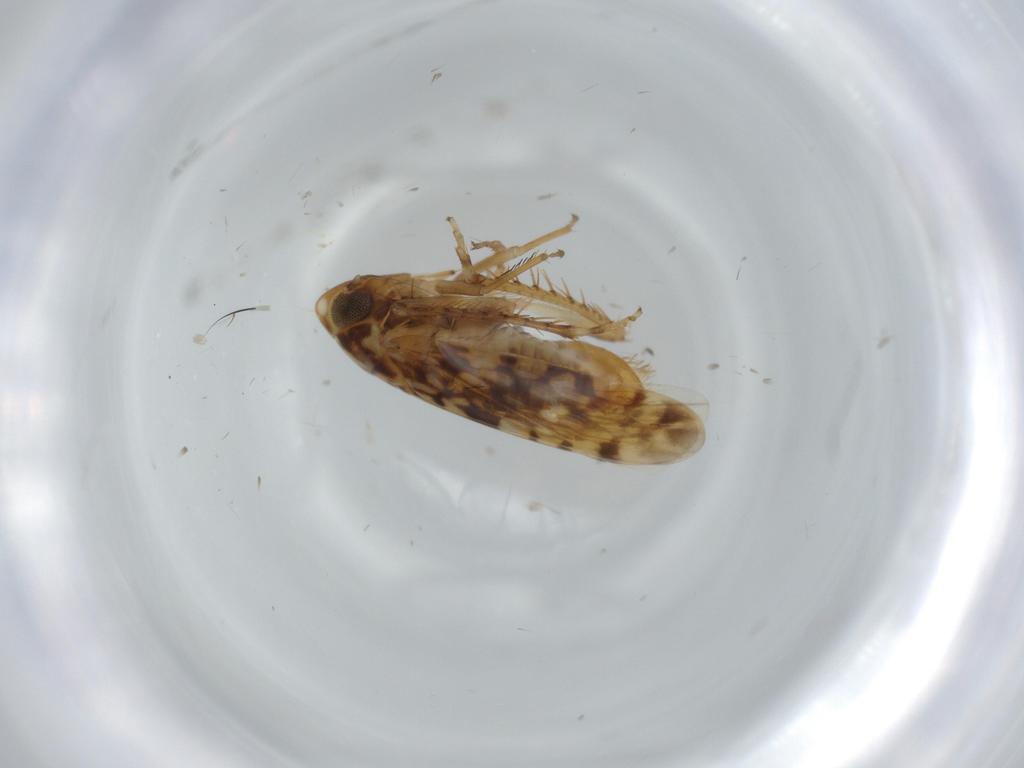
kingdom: Animalia
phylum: Arthropoda
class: Insecta
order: Hemiptera
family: Cicadellidae
